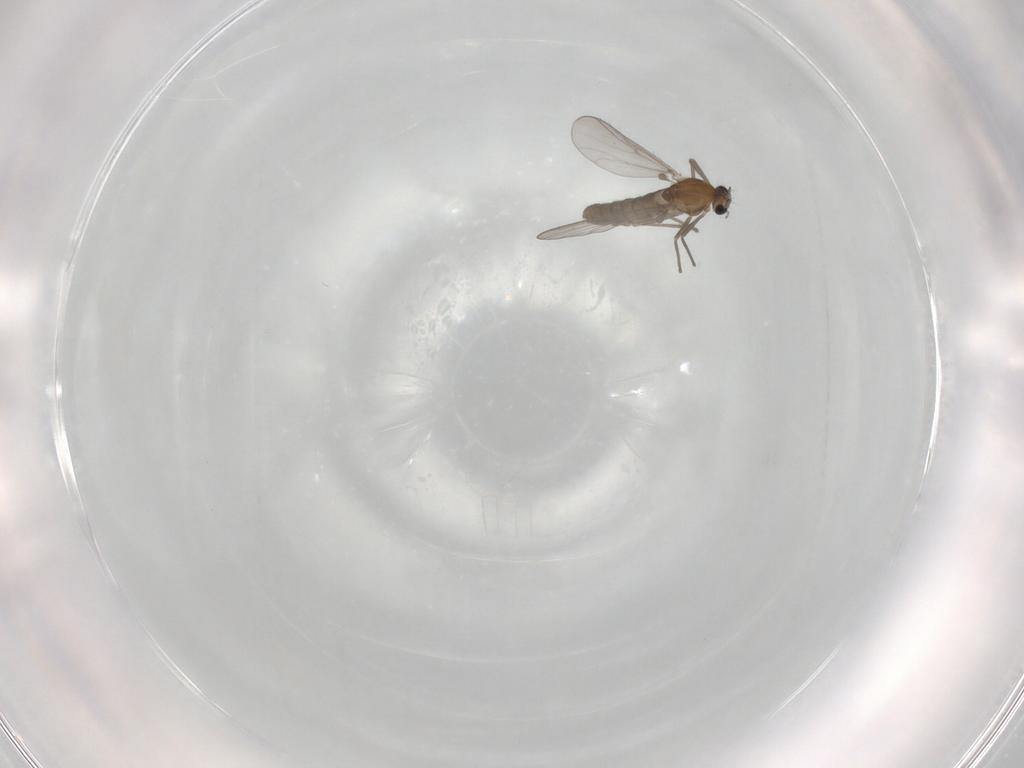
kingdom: Animalia
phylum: Arthropoda
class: Insecta
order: Diptera
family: Chironomidae
